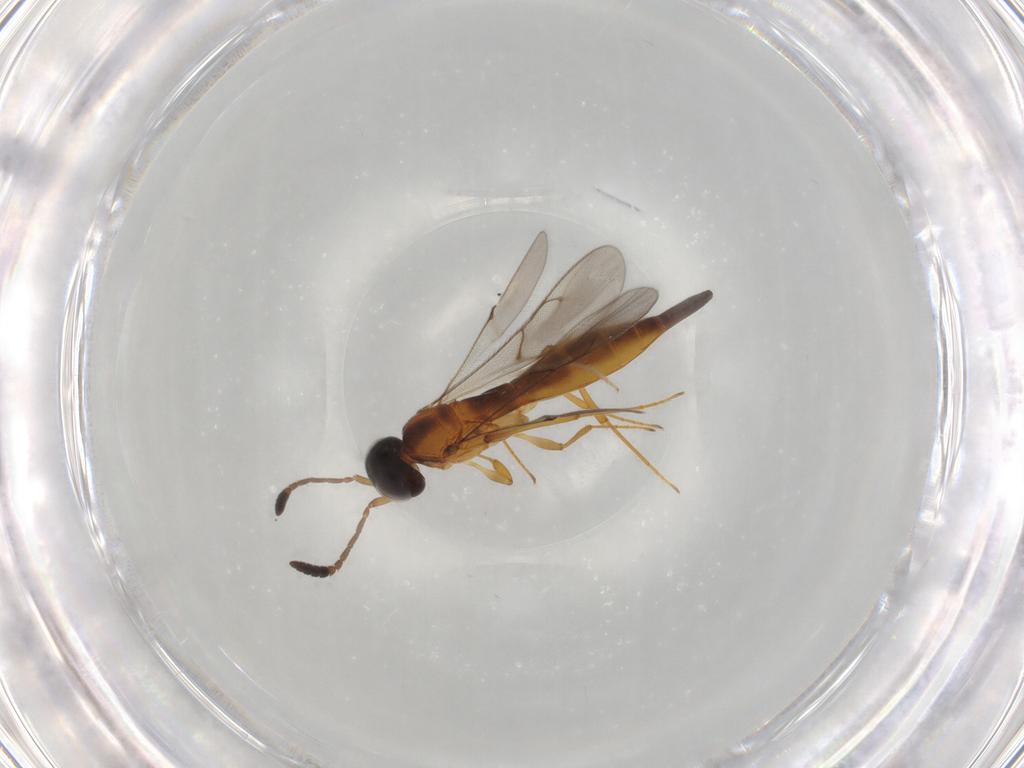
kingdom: Animalia
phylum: Arthropoda
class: Insecta
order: Hymenoptera
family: Scelionidae
